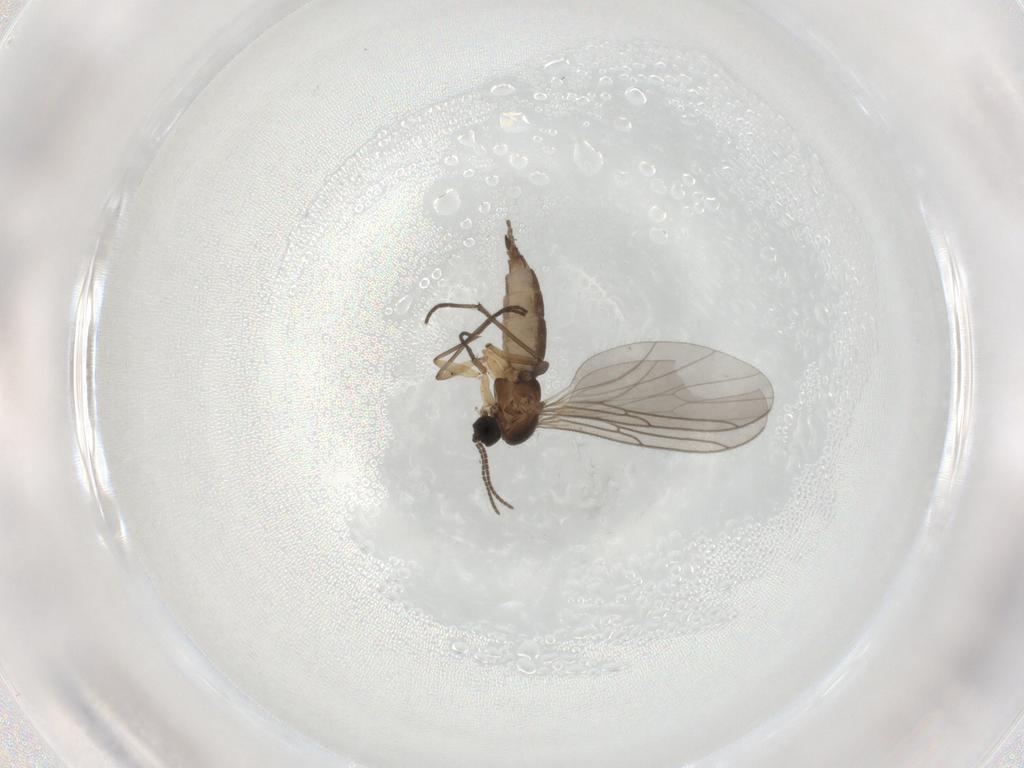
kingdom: Animalia
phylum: Arthropoda
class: Insecta
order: Diptera
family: Sciaridae
